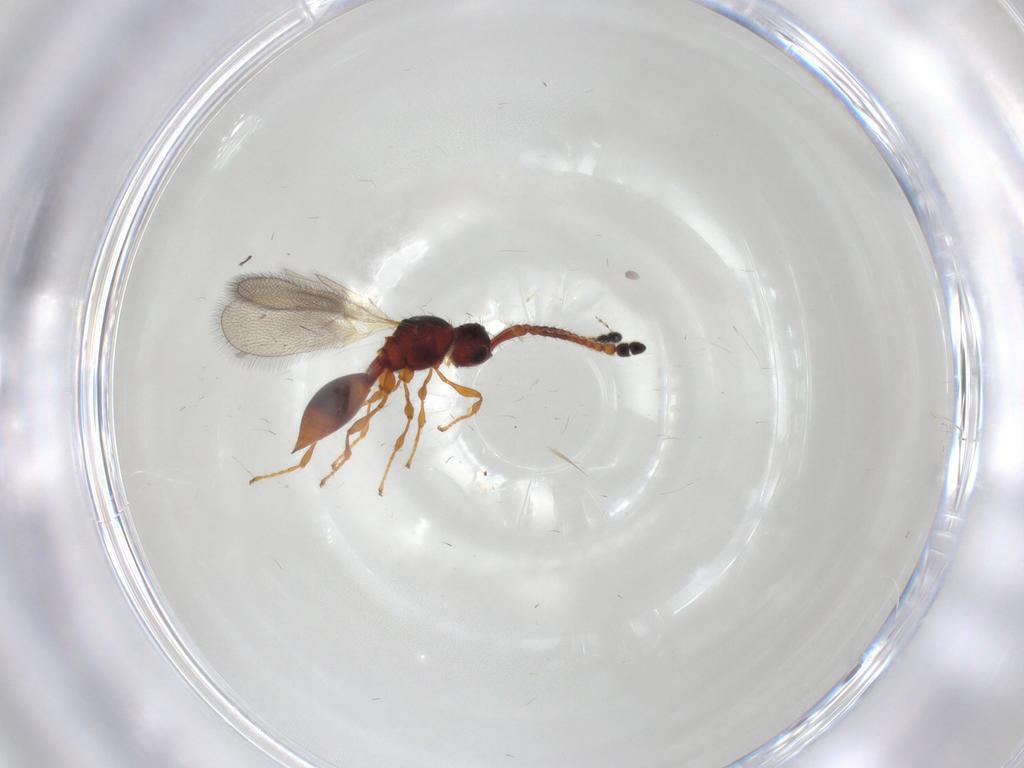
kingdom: Animalia
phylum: Arthropoda
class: Insecta
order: Hymenoptera
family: Diapriidae
